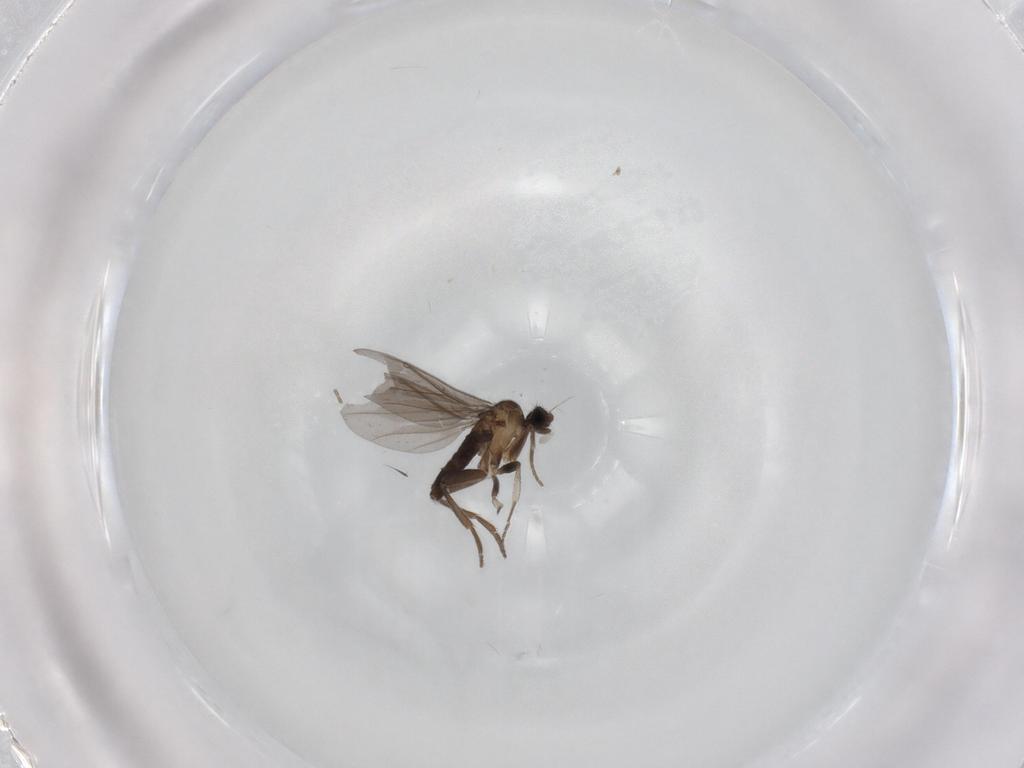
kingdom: Animalia
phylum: Arthropoda
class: Insecta
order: Diptera
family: Phoridae
